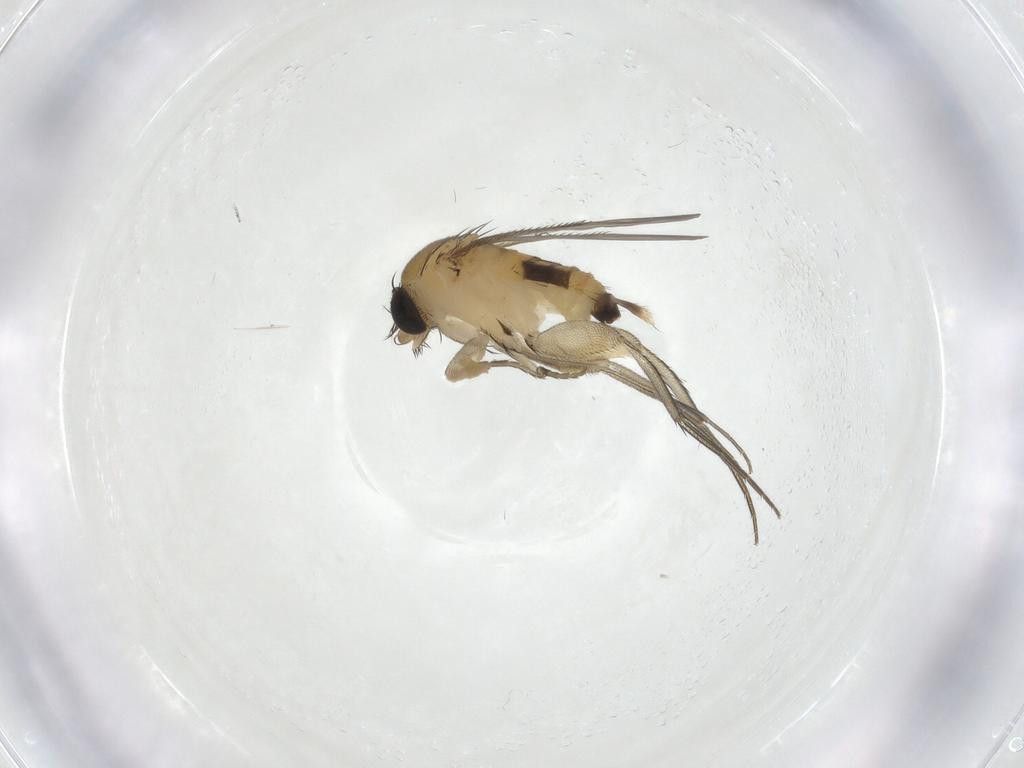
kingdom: Animalia
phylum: Arthropoda
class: Insecta
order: Diptera
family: Phoridae
